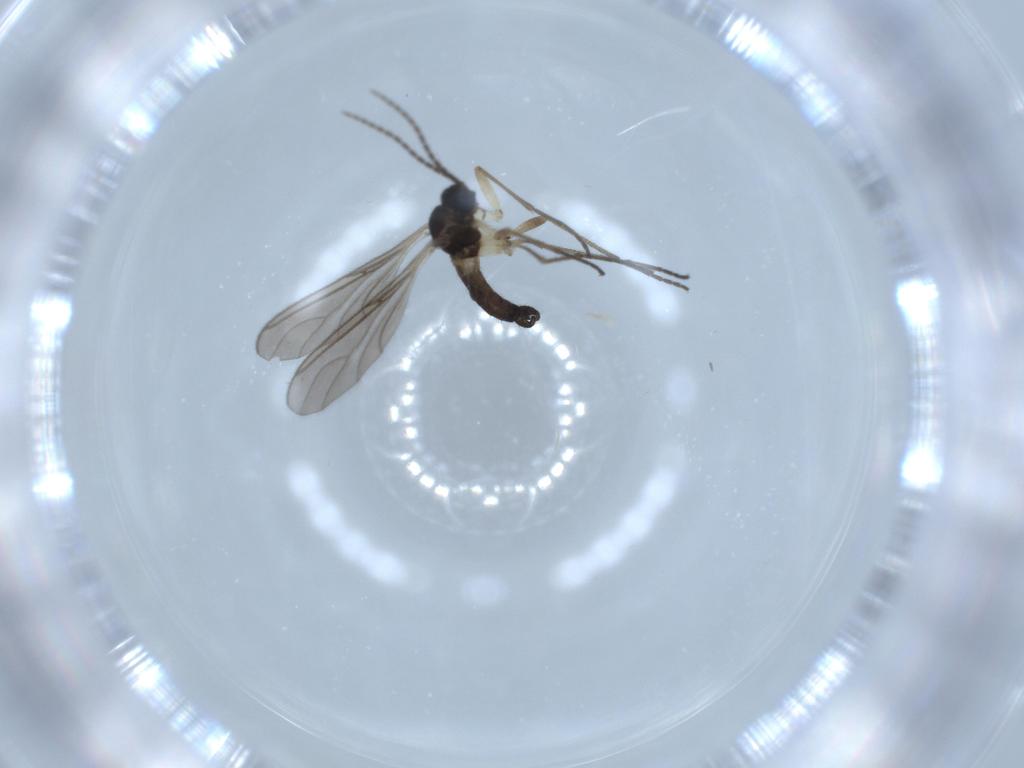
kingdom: Animalia
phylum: Arthropoda
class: Insecta
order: Diptera
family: Sciaridae
